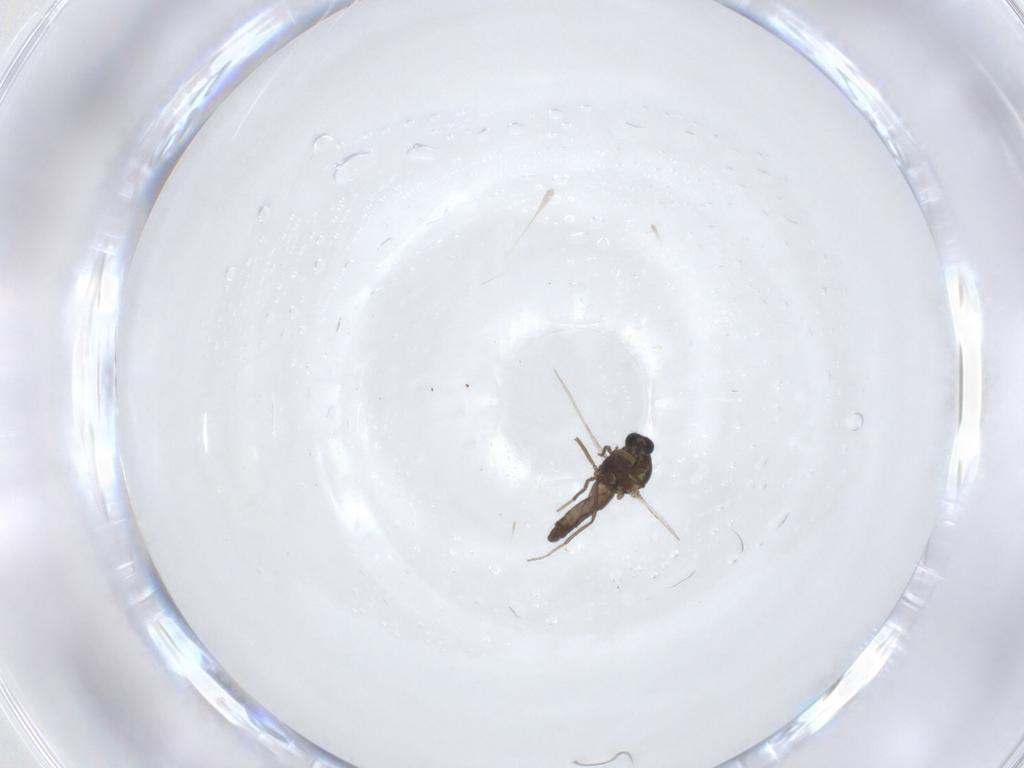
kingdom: Animalia
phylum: Arthropoda
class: Insecta
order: Diptera
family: Ceratopogonidae
